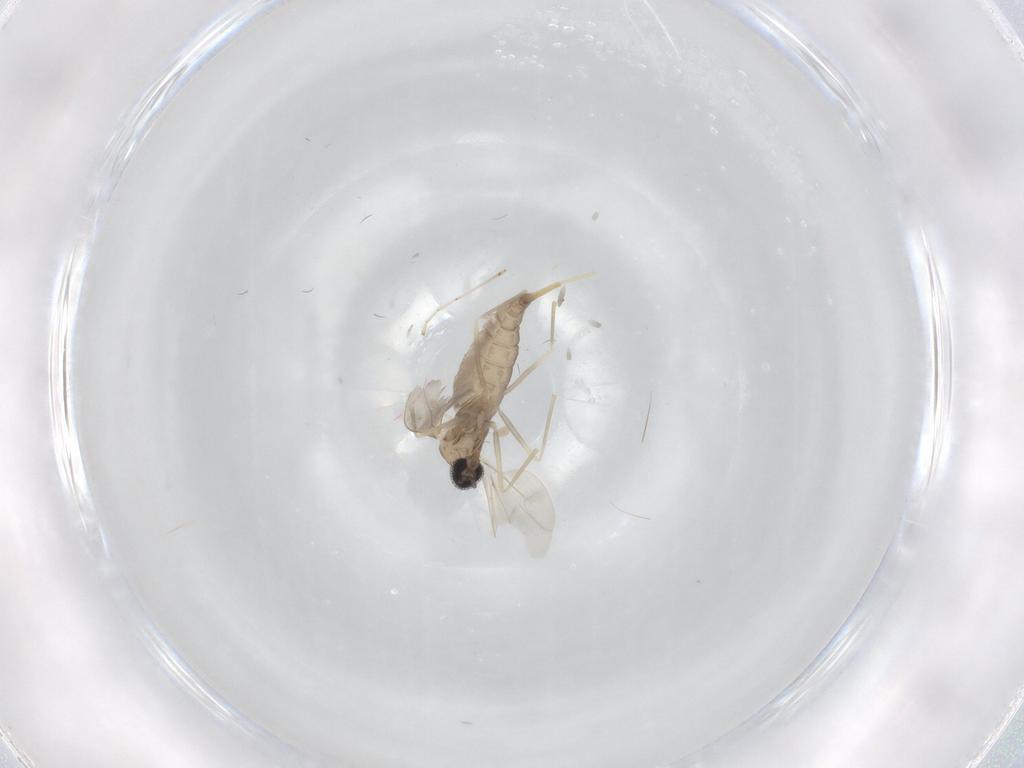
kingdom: Animalia
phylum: Arthropoda
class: Insecta
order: Diptera
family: Cecidomyiidae
